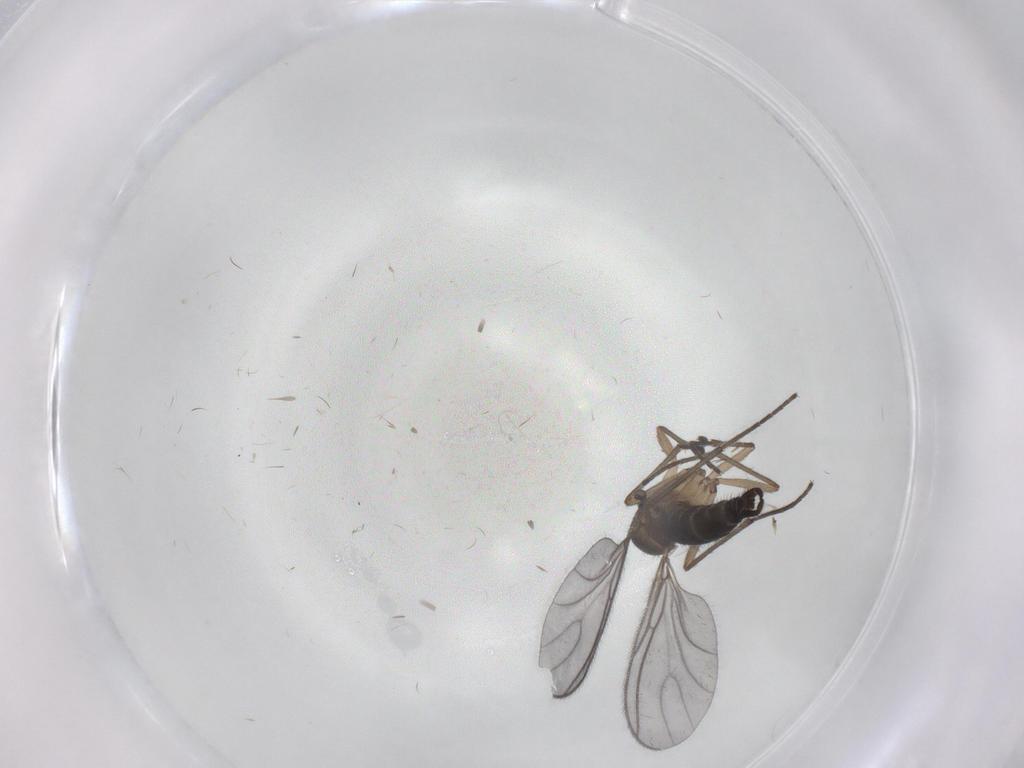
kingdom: Animalia
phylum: Arthropoda
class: Insecta
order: Diptera
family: Sciaridae
